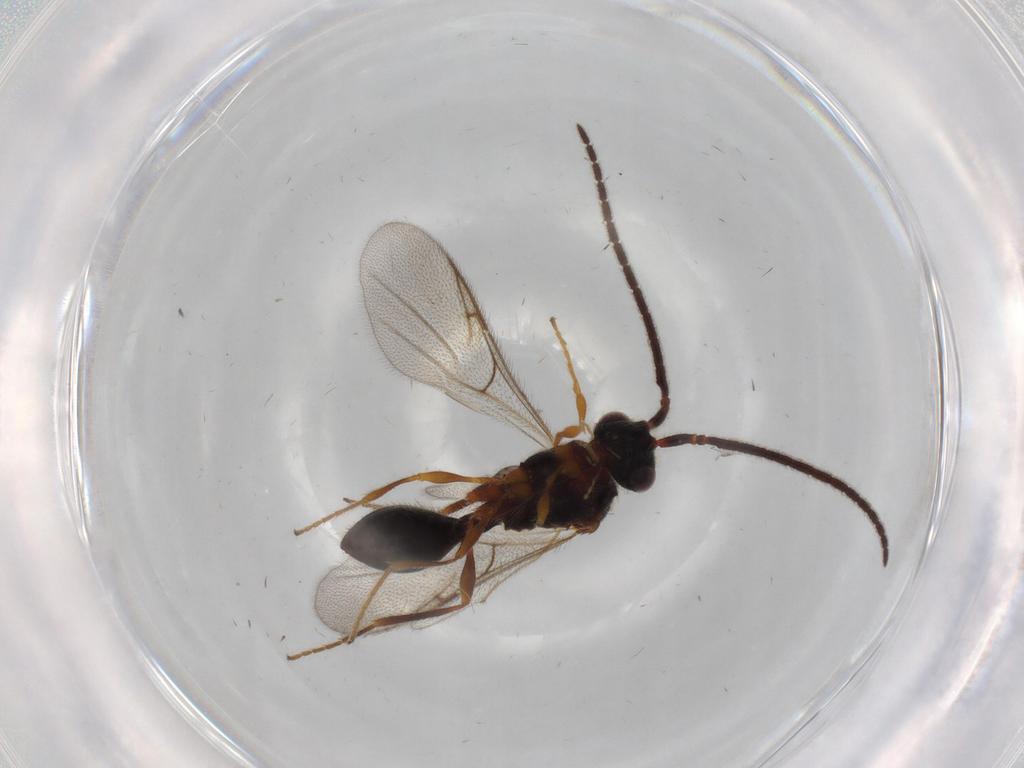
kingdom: Animalia
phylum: Arthropoda
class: Insecta
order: Hymenoptera
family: Diapriidae
